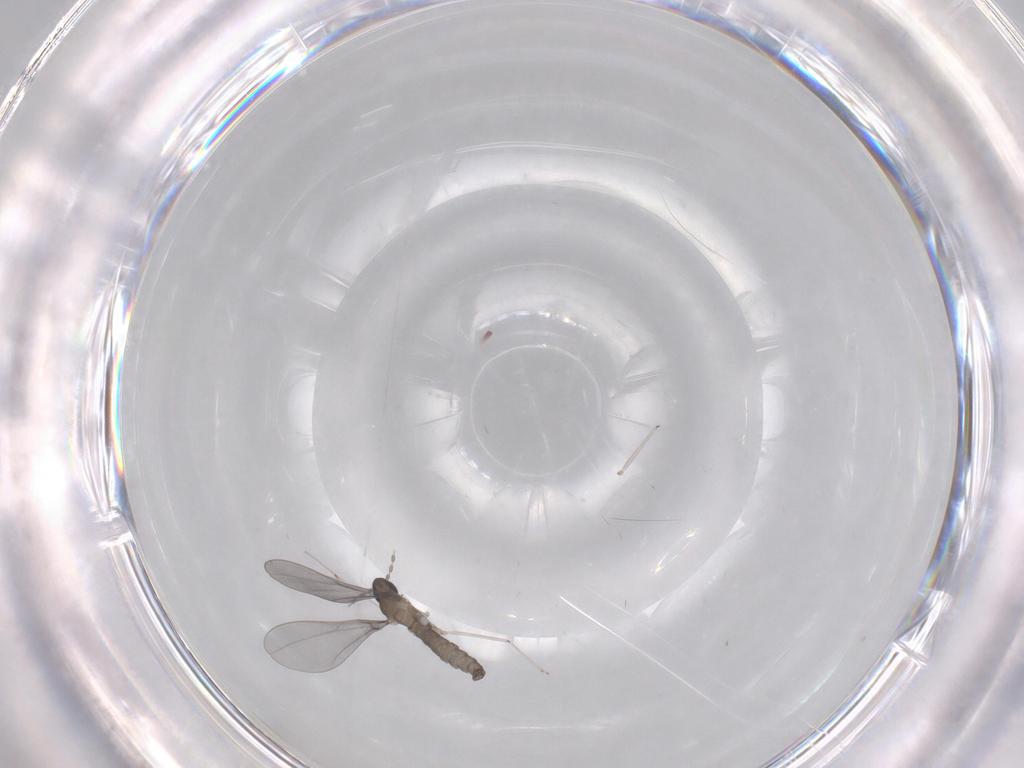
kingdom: Animalia
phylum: Arthropoda
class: Insecta
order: Diptera
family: Cecidomyiidae
